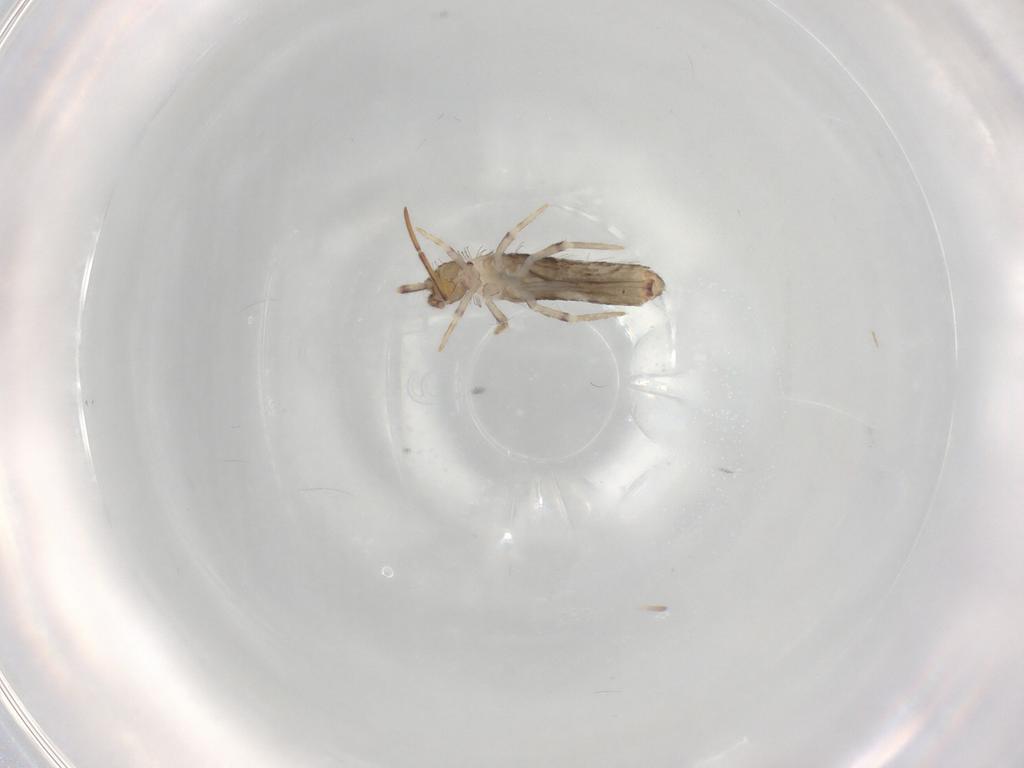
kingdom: Animalia
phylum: Arthropoda
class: Collembola
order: Entomobryomorpha
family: Entomobryidae
